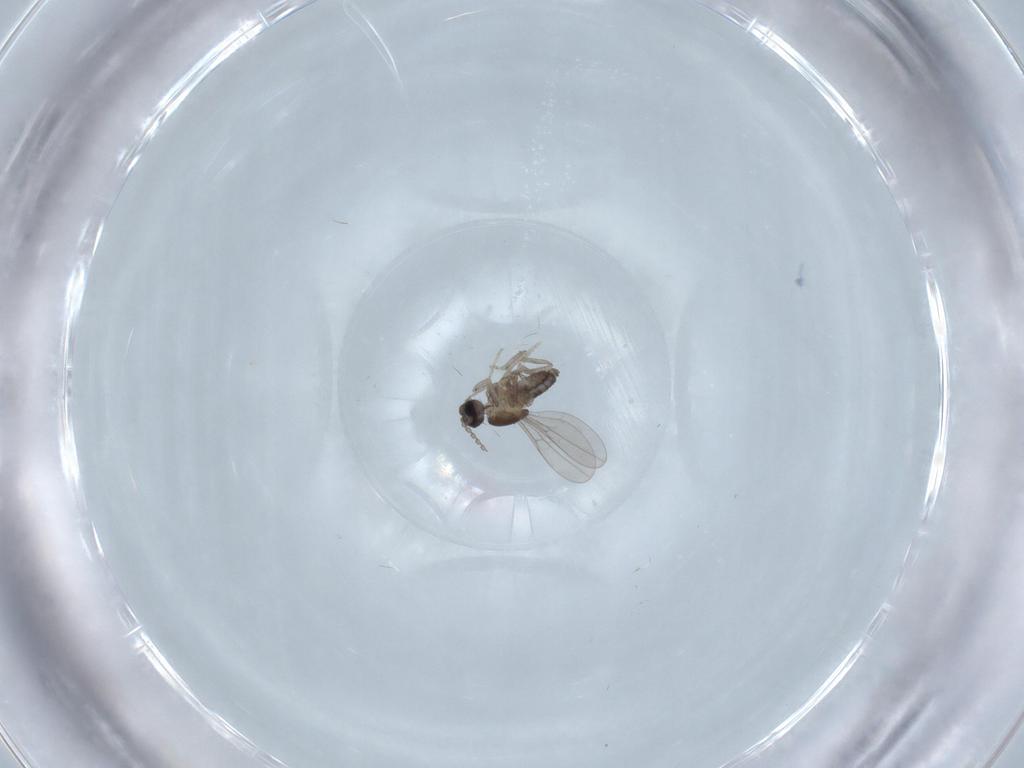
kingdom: Animalia
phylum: Arthropoda
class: Insecta
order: Diptera
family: Cecidomyiidae
